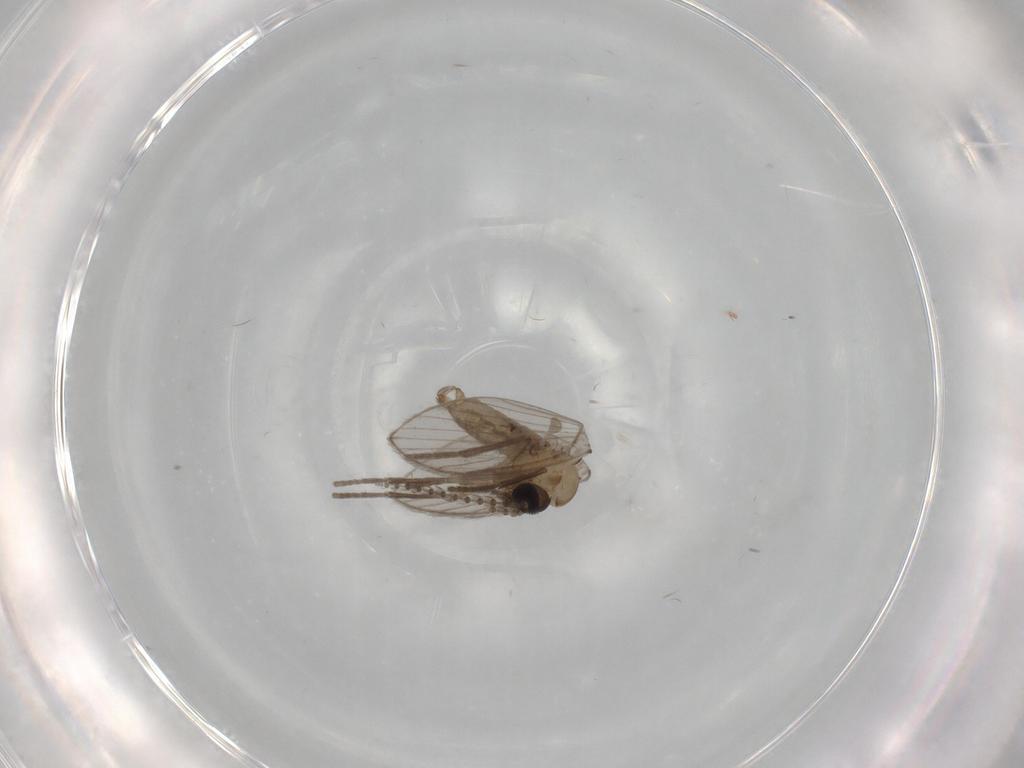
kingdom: Animalia
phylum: Arthropoda
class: Insecta
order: Diptera
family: Psychodidae
